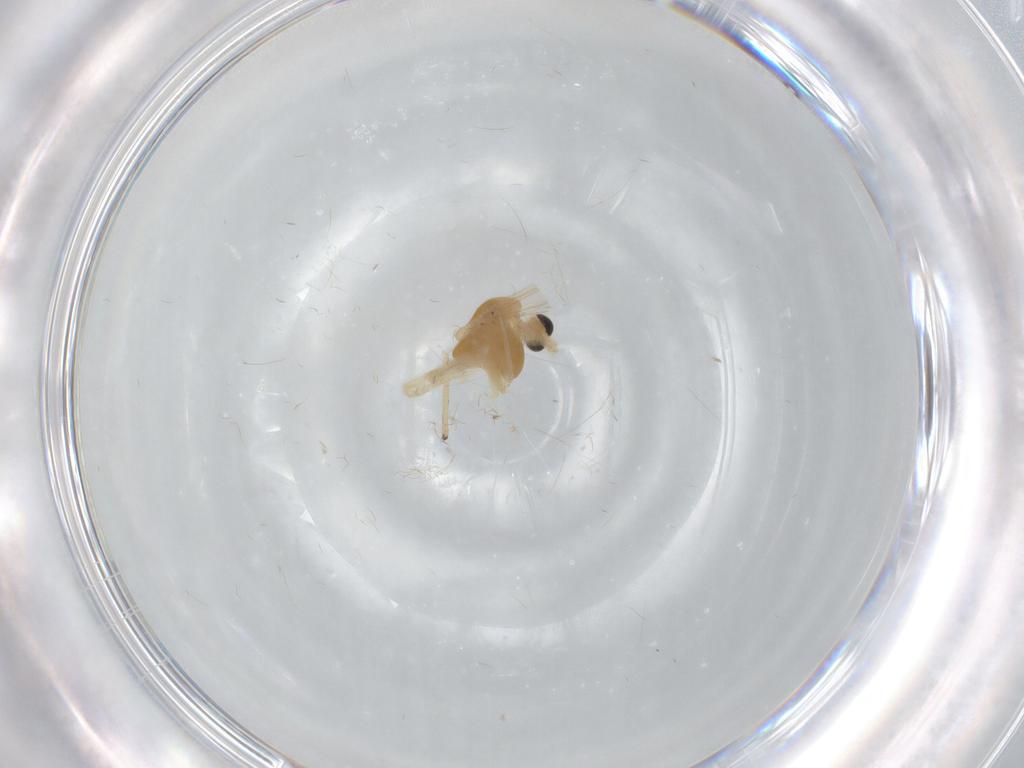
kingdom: Animalia
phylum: Arthropoda
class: Insecta
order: Diptera
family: Chironomidae
